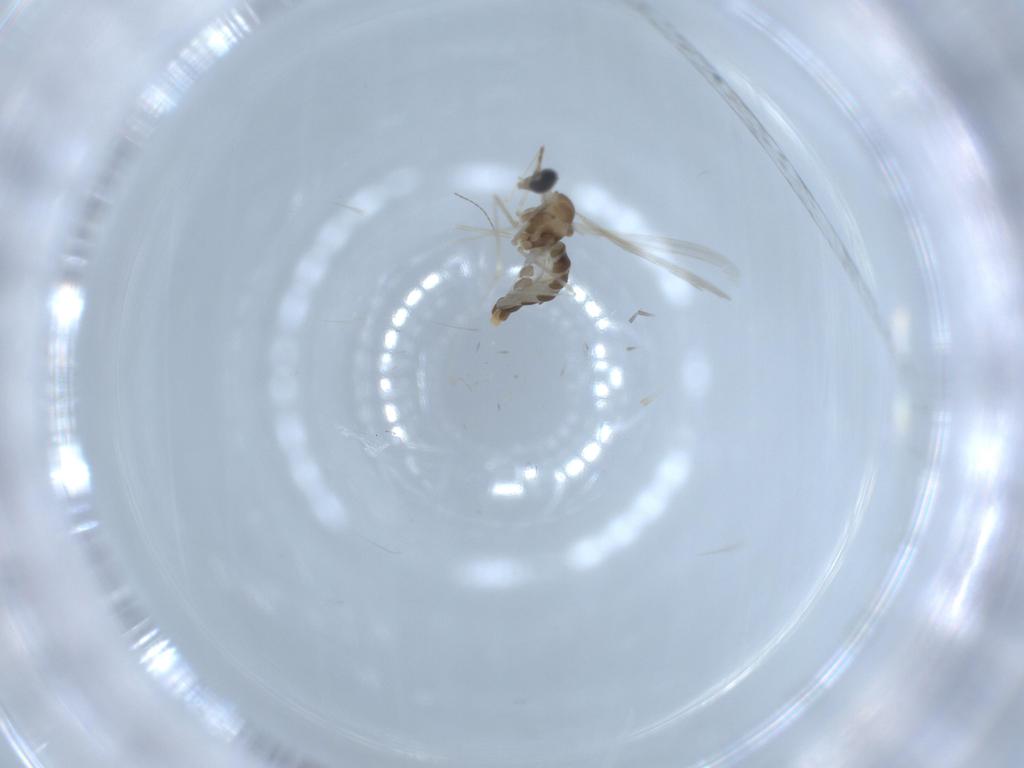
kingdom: Animalia
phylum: Arthropoda
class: Insecta
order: Diptera
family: Cecidomyiidae
